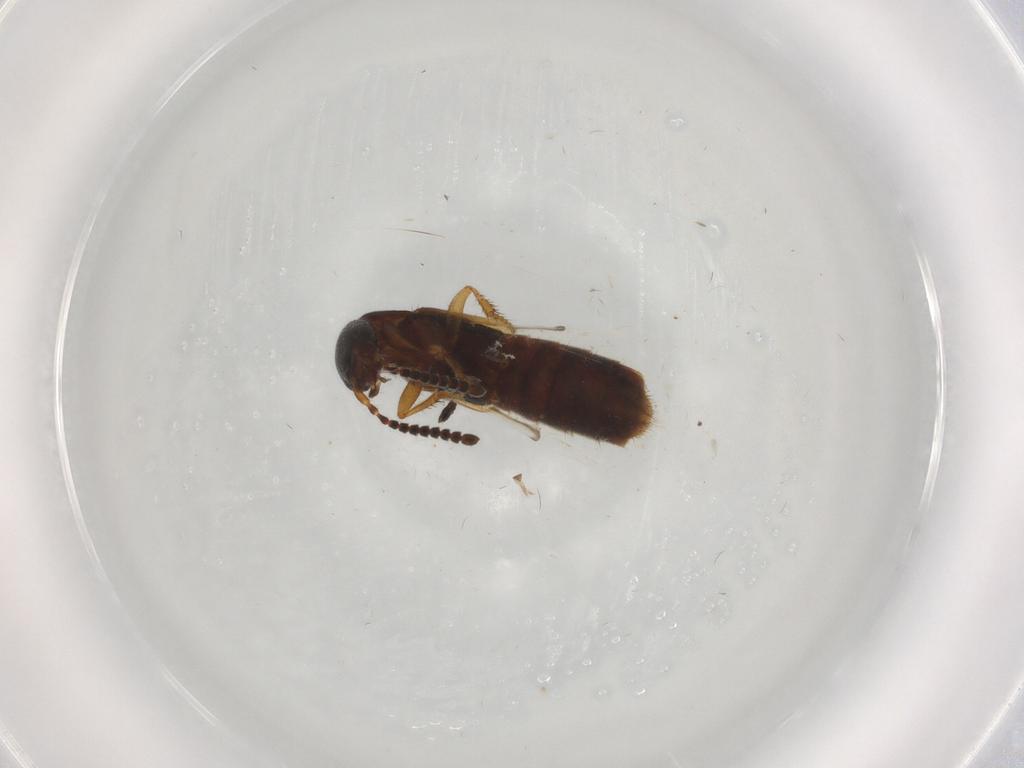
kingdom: Animalia
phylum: Arthropoda
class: Insecta
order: Coleoptera
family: Staphylinidae
